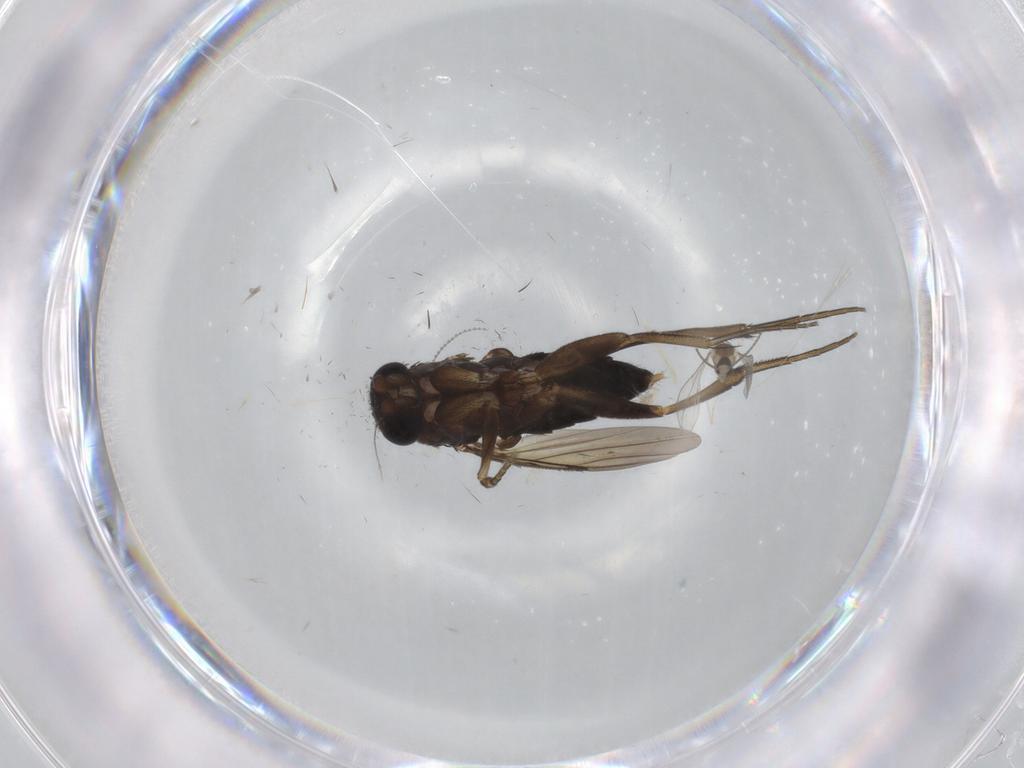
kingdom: Animalia
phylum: Arthropoda
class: Insecta
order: Diptera
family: Phoridae
